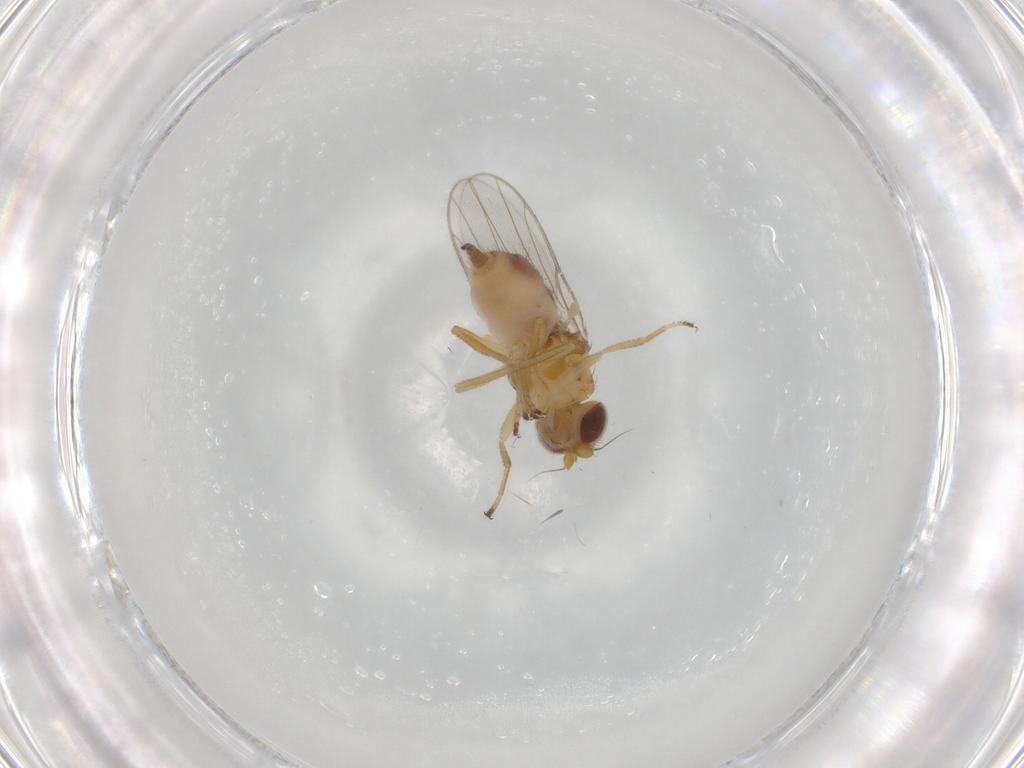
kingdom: Animalia
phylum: Arthropoda
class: Insecta
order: Diptera
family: Chloropidae
